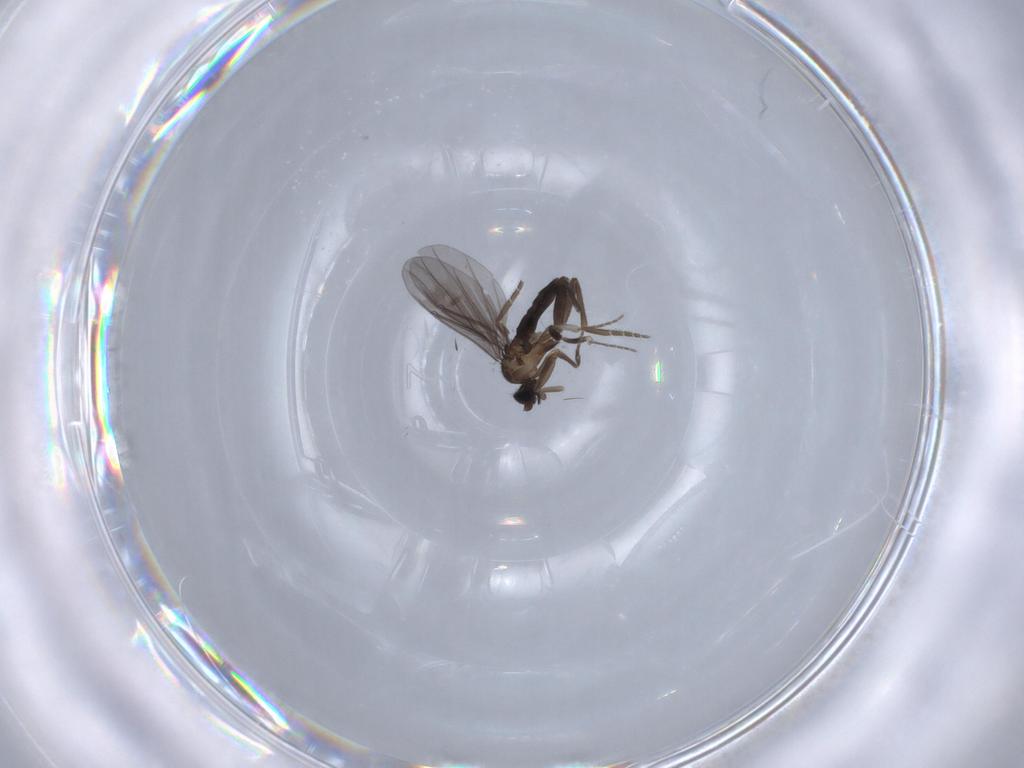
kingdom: Animalia
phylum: Arthropoda
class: Insecta
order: Diptera
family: Phoridae
